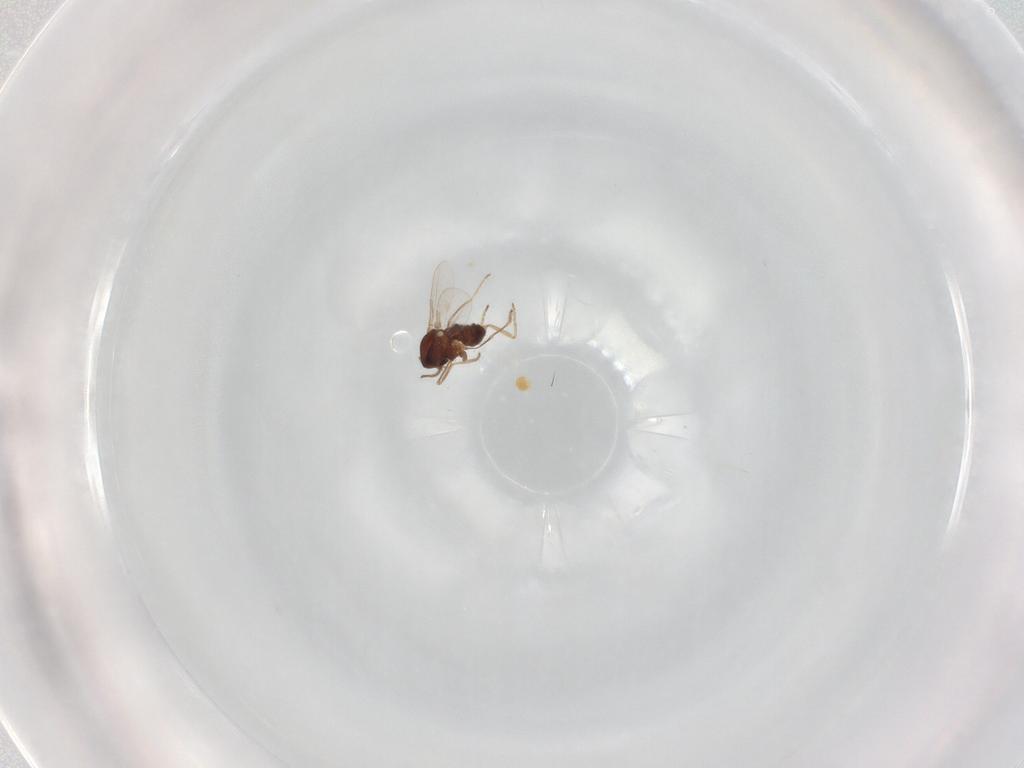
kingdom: Animalia
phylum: Arthropoda
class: Insecta
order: Diptera
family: Ceratopogonidae
